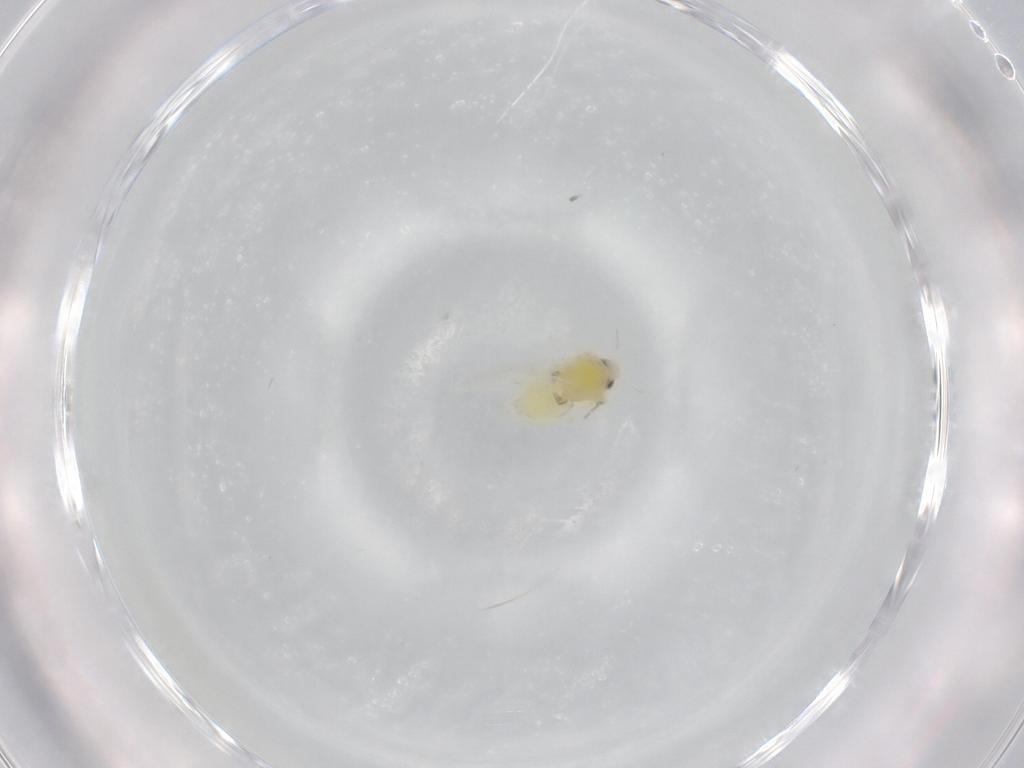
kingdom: Animalia
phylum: Arthropoda
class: Insecta
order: Hemiptera
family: Aleyrodidae
